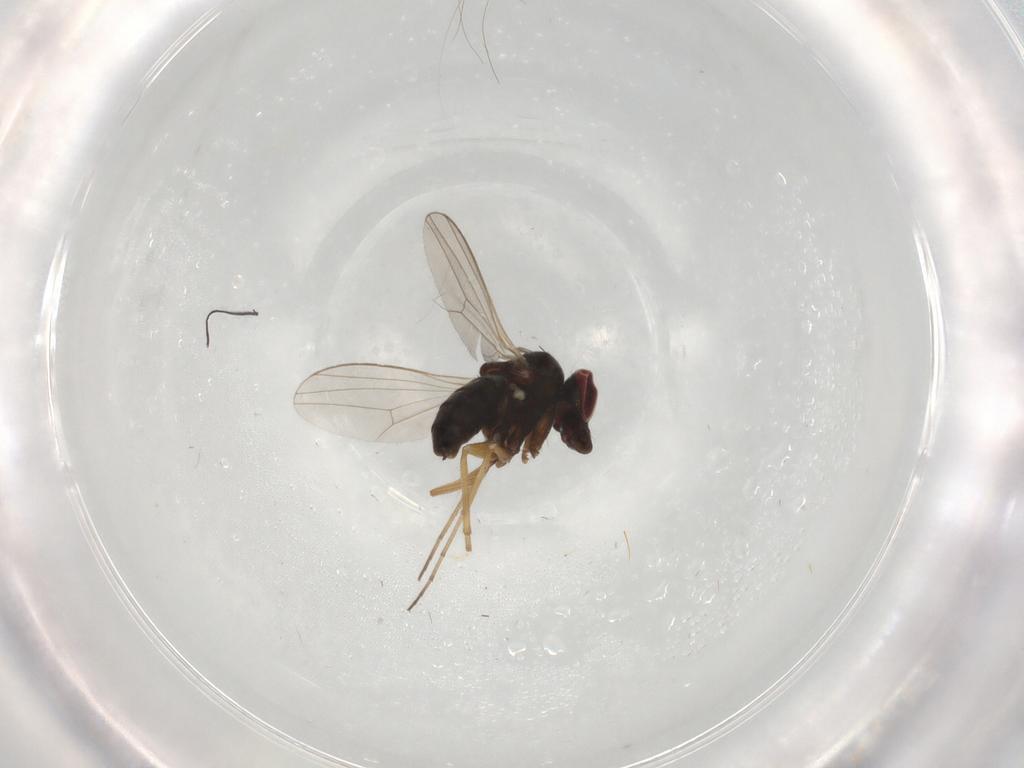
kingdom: Animalia
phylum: Arthropoda
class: Insecta
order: Diptera
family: Dolichopodidae
